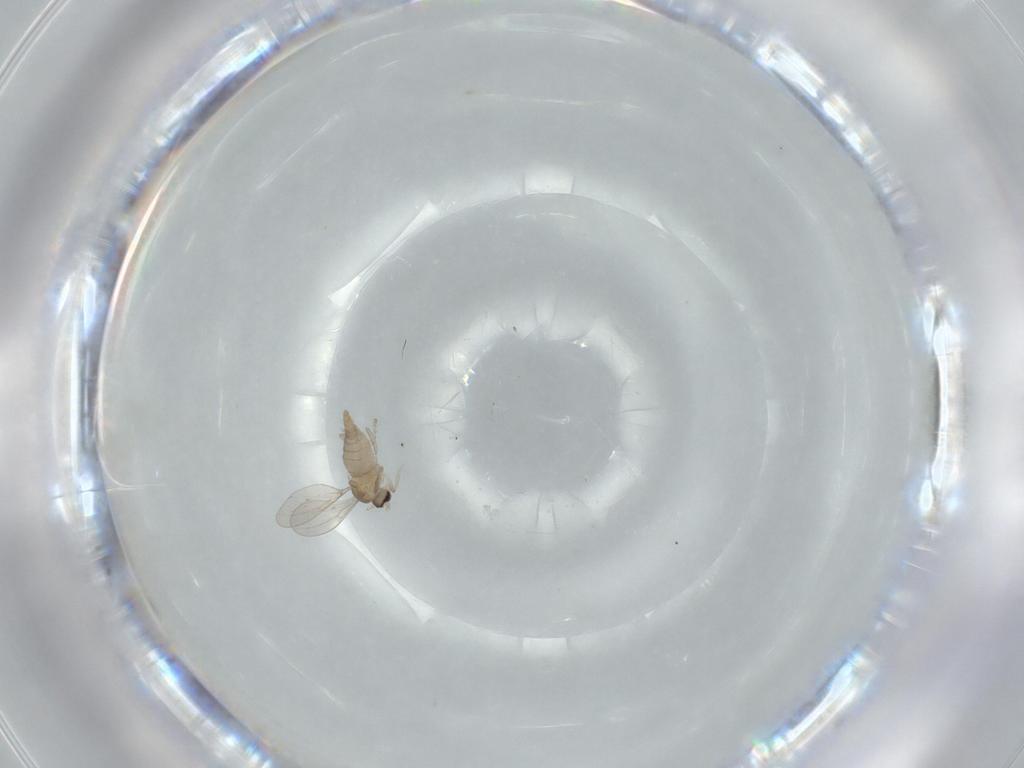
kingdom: Animalia
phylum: Arthropoda
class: Insecta
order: Diptera
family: Cecidomyiidae
